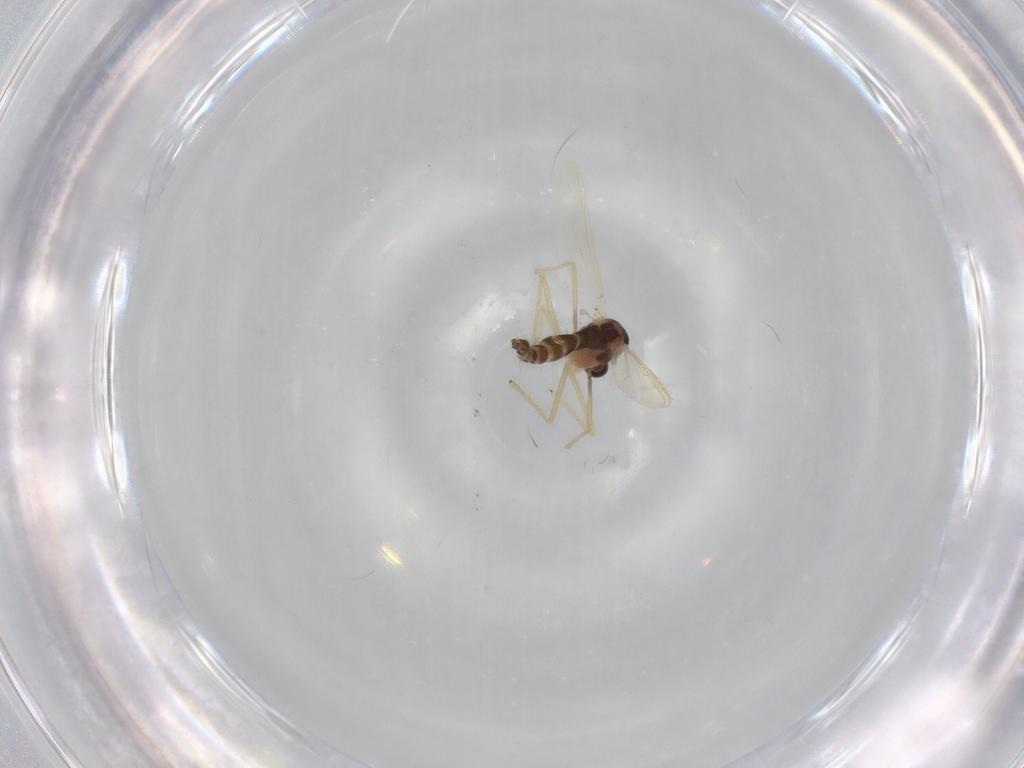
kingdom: Animalia
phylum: Arthropoda
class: Insecta
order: Diptera
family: Chironomidae
